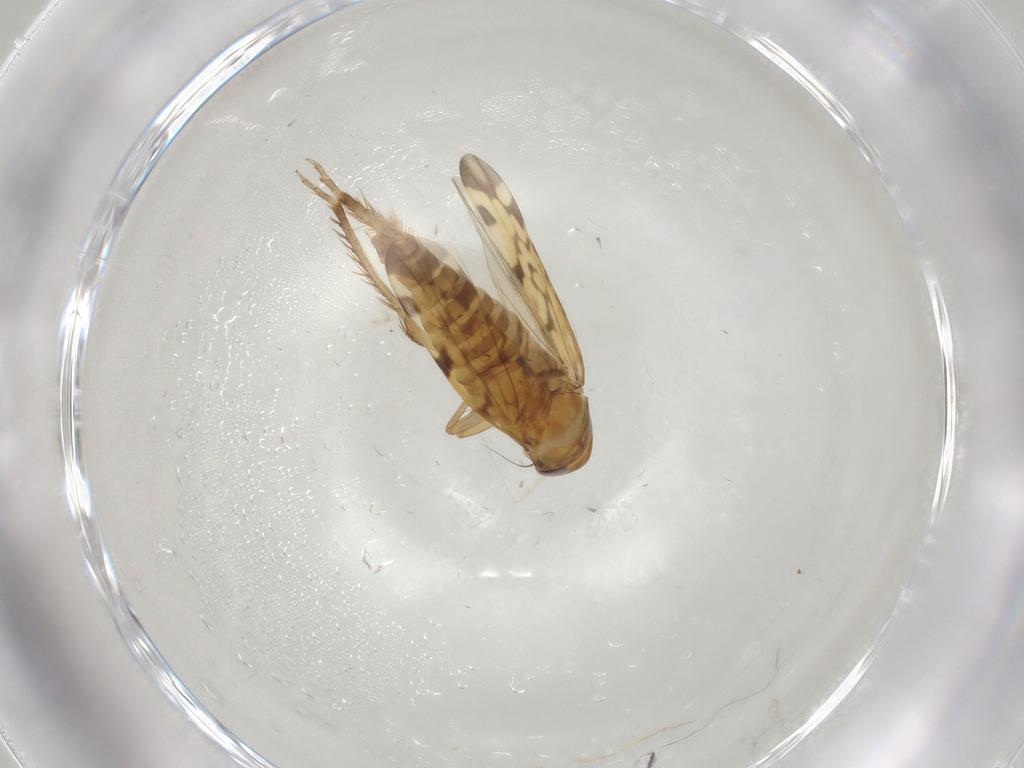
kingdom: Animalia
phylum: Arthropoda
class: Insecta
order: Hemiptera
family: Cicadellidae
